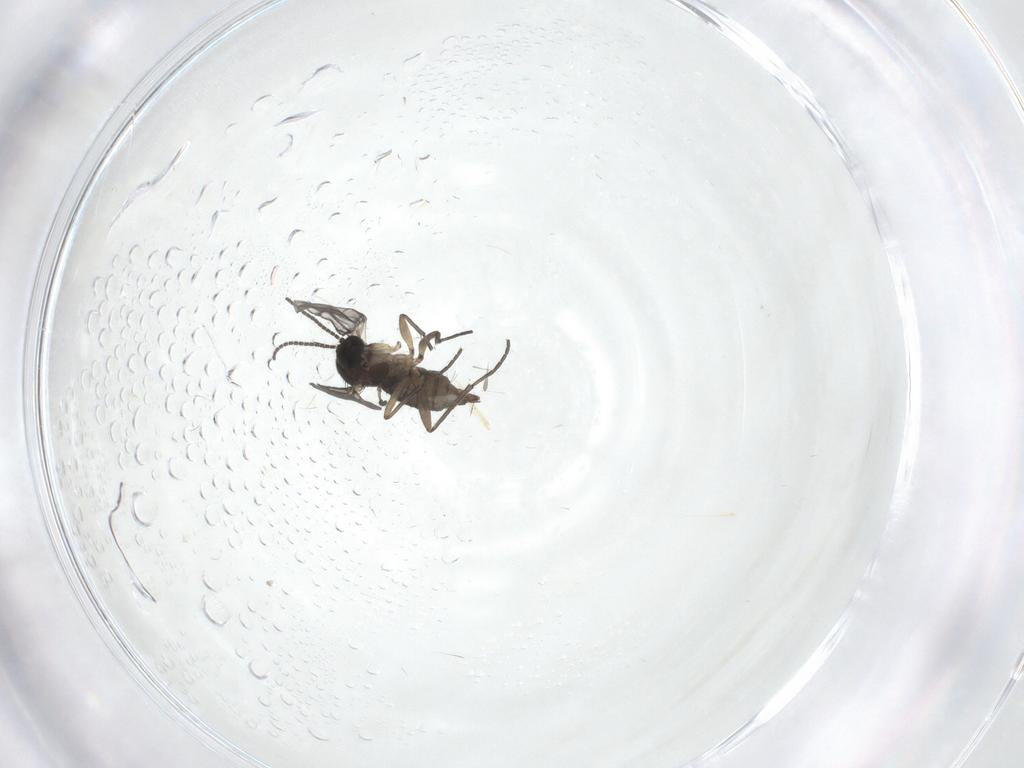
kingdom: Animalia
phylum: Arthropoda
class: Insecta
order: Diptera
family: Sciaridae
